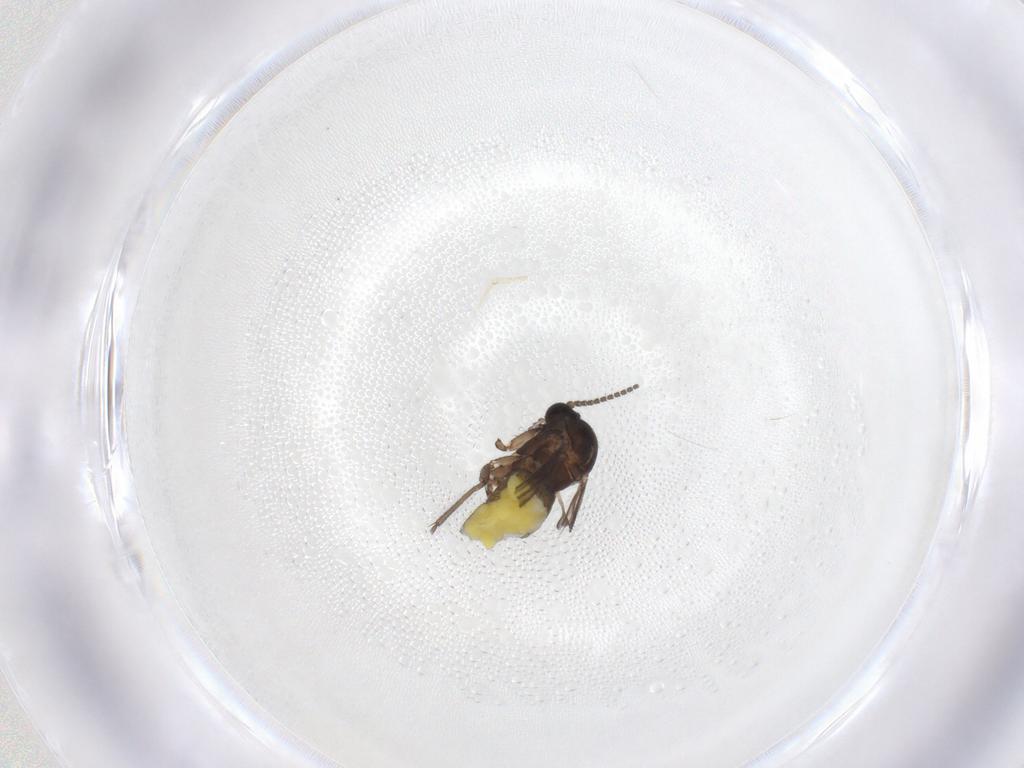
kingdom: Animalia
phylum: Arthropoda
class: Insecta
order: Diptera
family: Sciaridae
